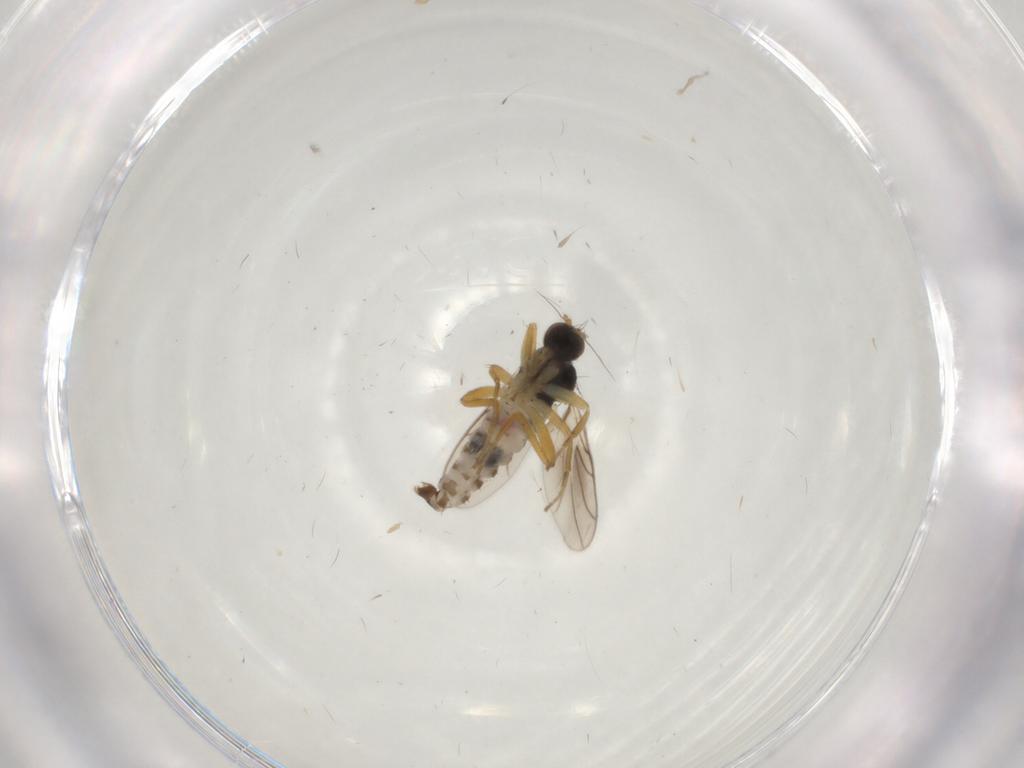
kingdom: Animalia
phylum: Arthropoda
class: Insecta
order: Diptera
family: Hybotidae
